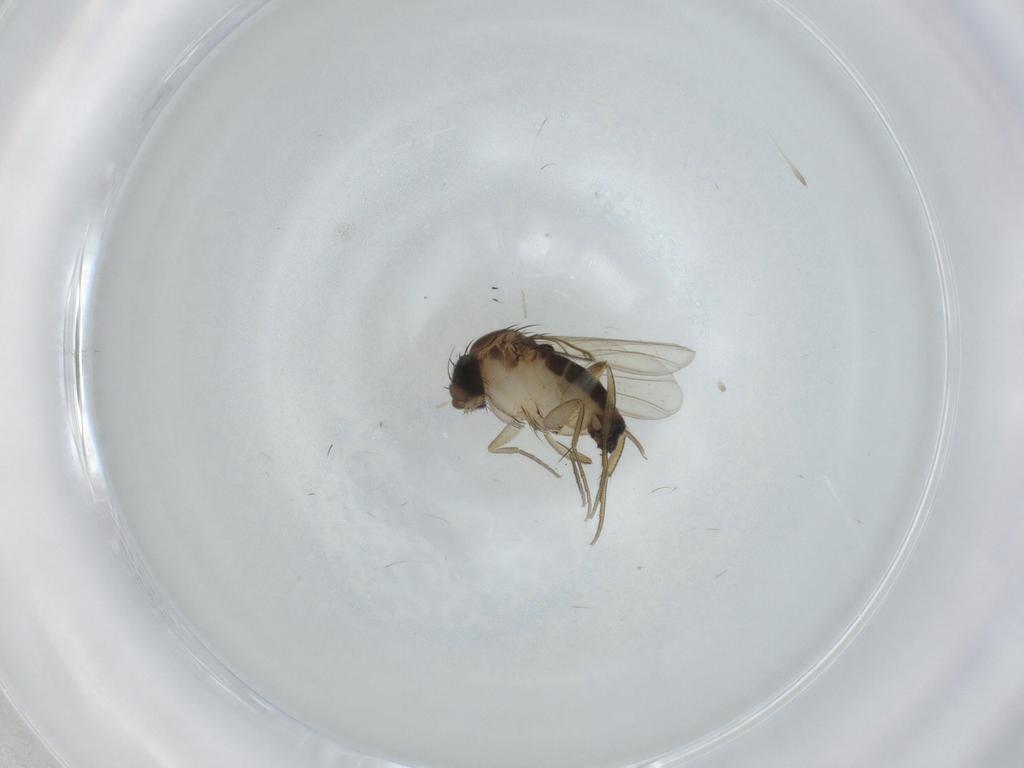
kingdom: Animalia
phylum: Arthropoda
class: Insecta
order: Diptera
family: Phoridae
